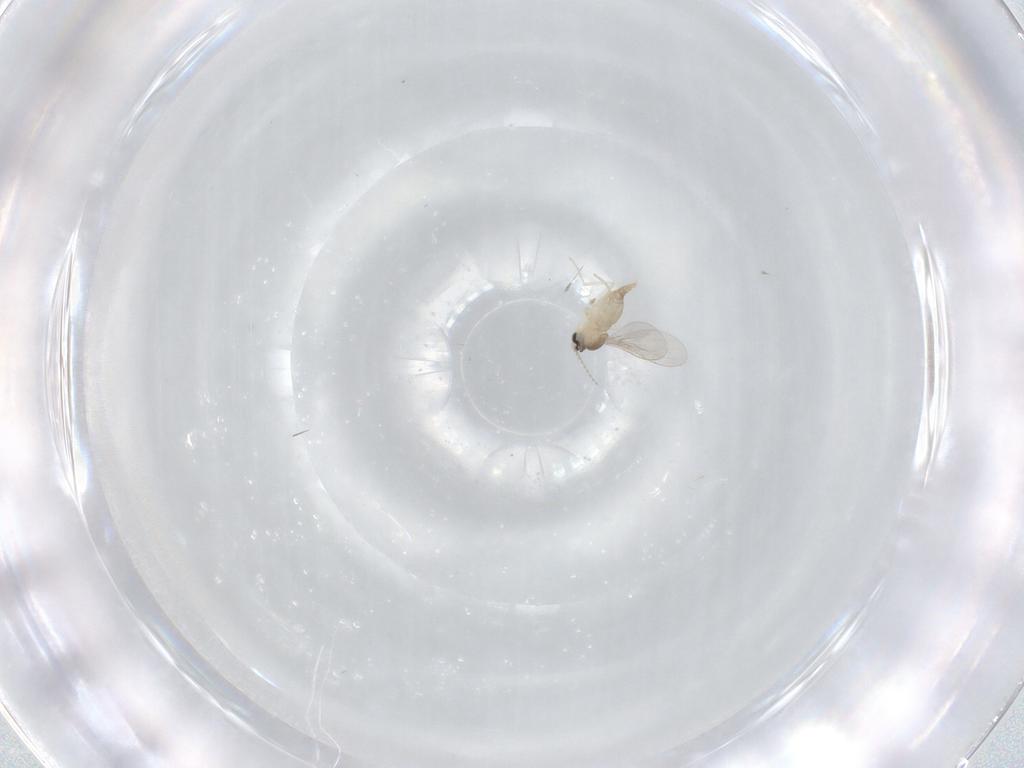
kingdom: Animalia
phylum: Arthropoda
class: Insecta
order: Diptera
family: Cecidomyiidae
